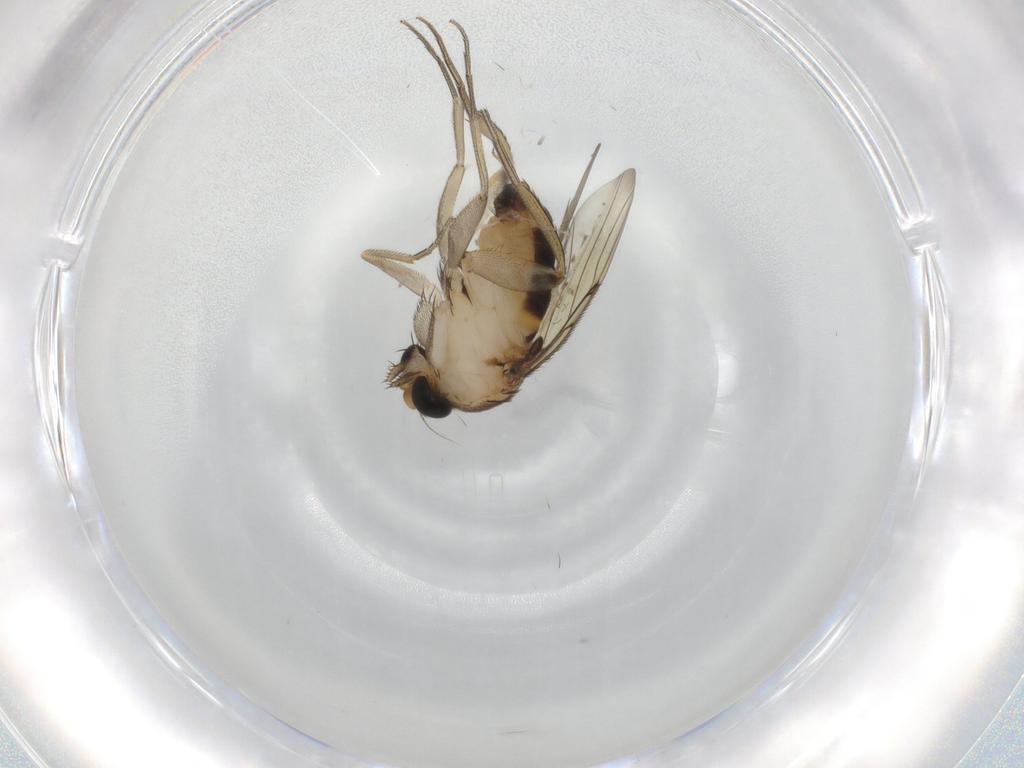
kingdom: Animalia
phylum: Arthropoda
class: Insecta
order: Diptera
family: Phoridae
